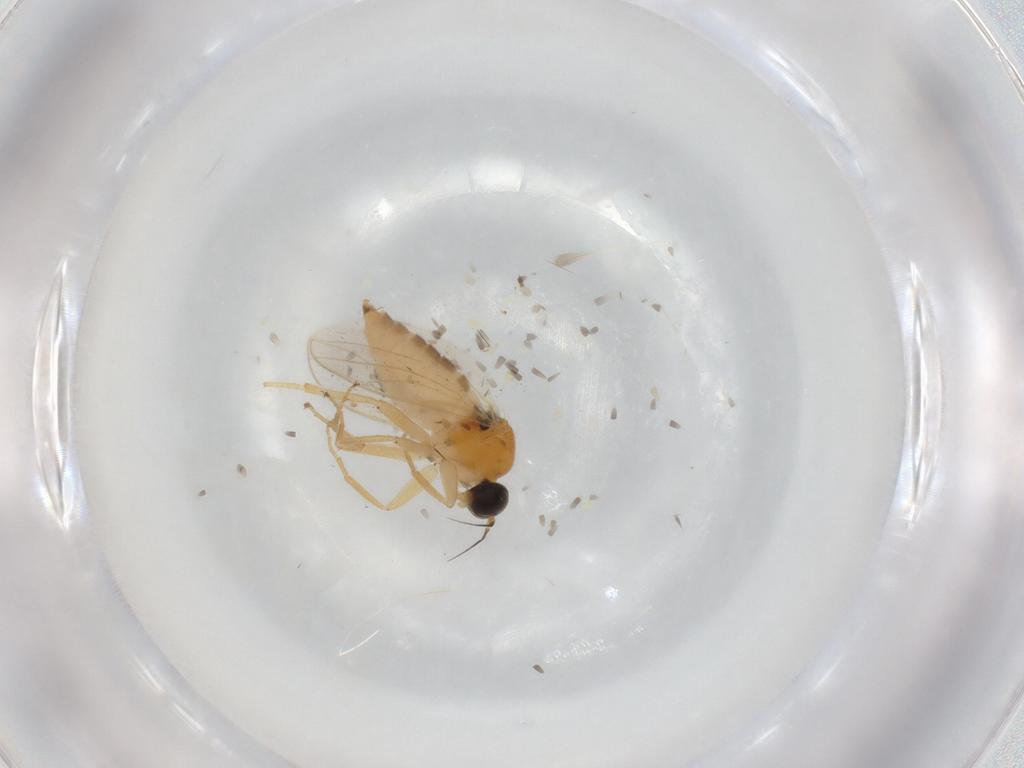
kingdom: Animalia
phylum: Arthropoda
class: Insecta
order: Diptera
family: Hybotidae
